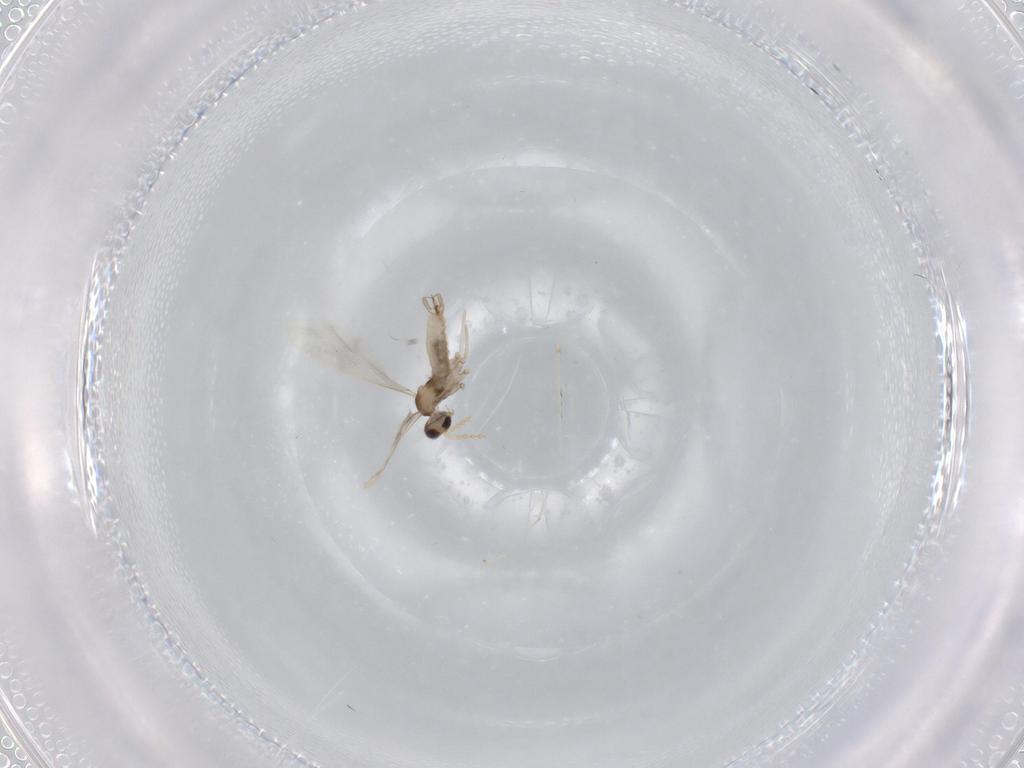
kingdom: Animalia
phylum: Arthropoda
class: Insecta
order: Diptera
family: Cecidomyiidae
